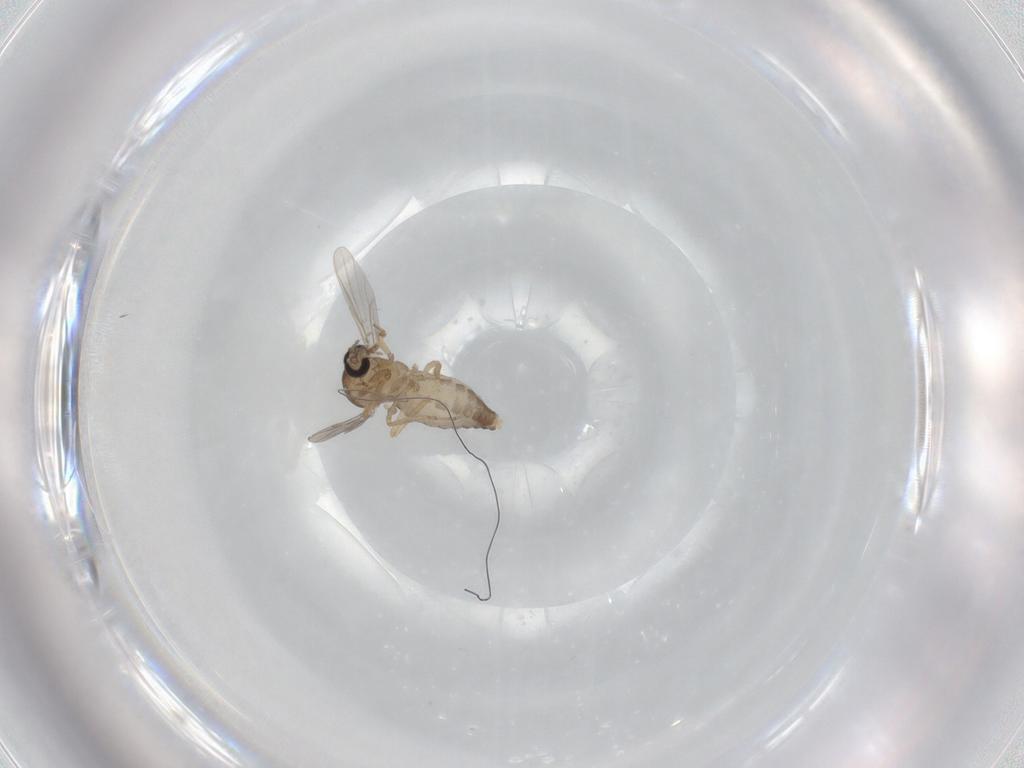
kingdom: Animalia
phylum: Arthropoda
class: Insecta
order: Diptera
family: Ceratopogonidae
